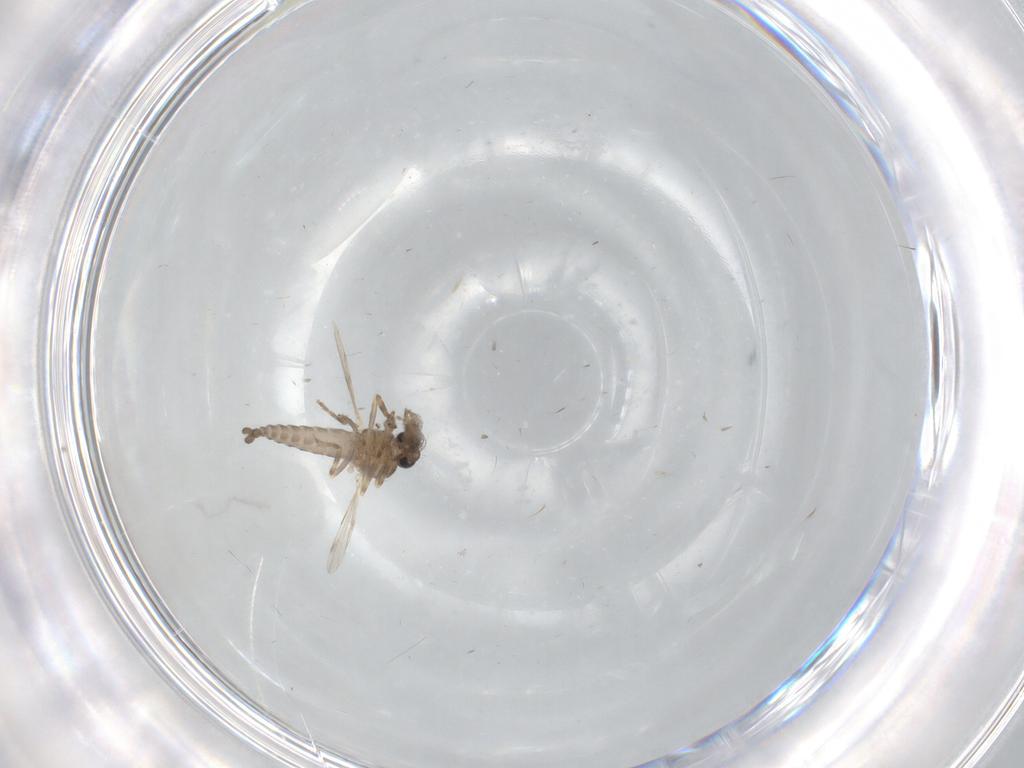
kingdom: Animalia
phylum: Arthropoda
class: Insecta
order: Diptera
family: Ceratopogonidae
